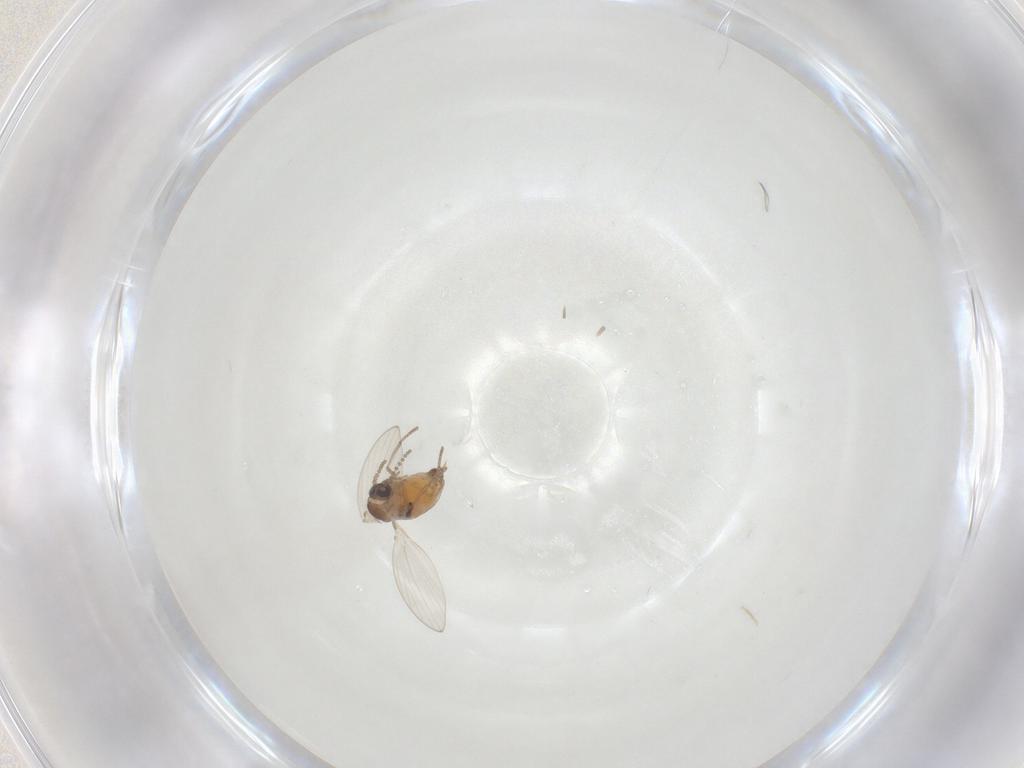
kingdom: Animalia
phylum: Arthropoda
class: Insecta
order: Diptera
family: Psychodidae
